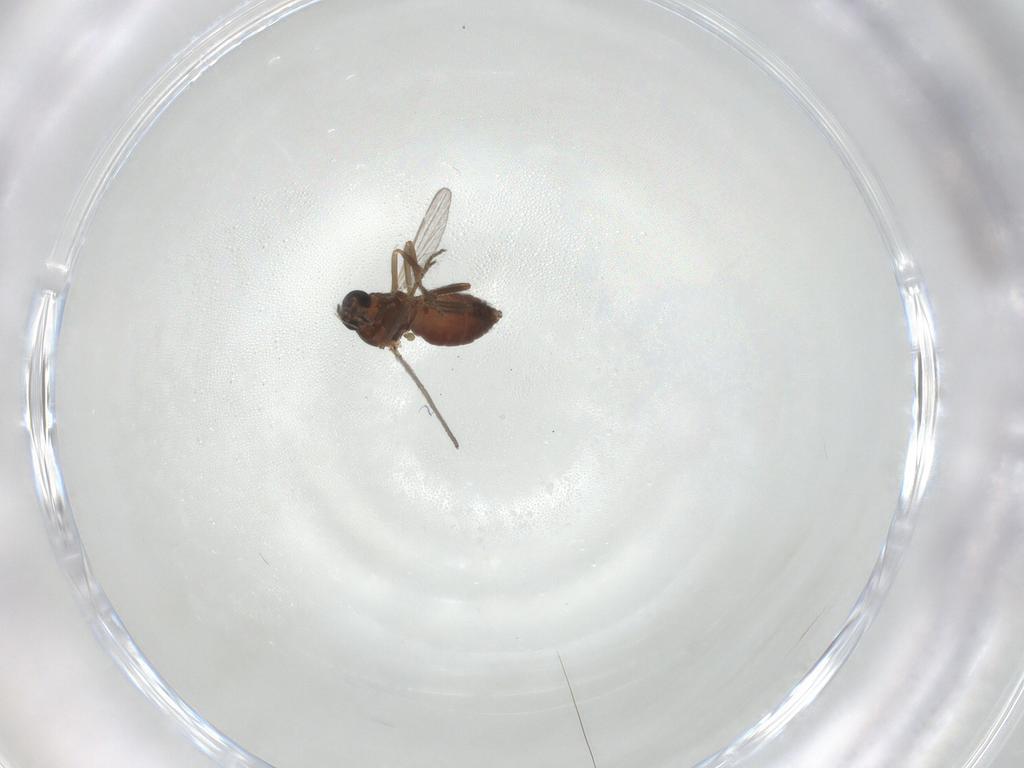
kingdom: Animalia
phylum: Arthropoda
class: Insecta
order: Diptera
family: Ceratopogonidae
